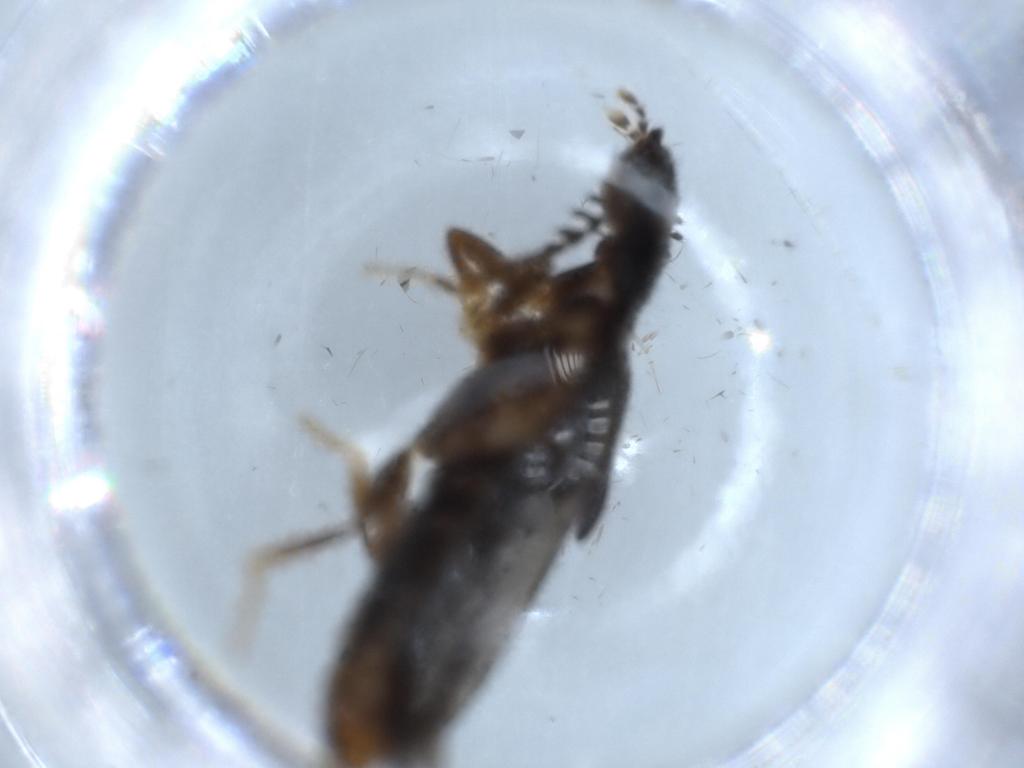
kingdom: Animalia
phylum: Arthropoda
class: Insecta
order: Coleoptera
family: Phengodidae
